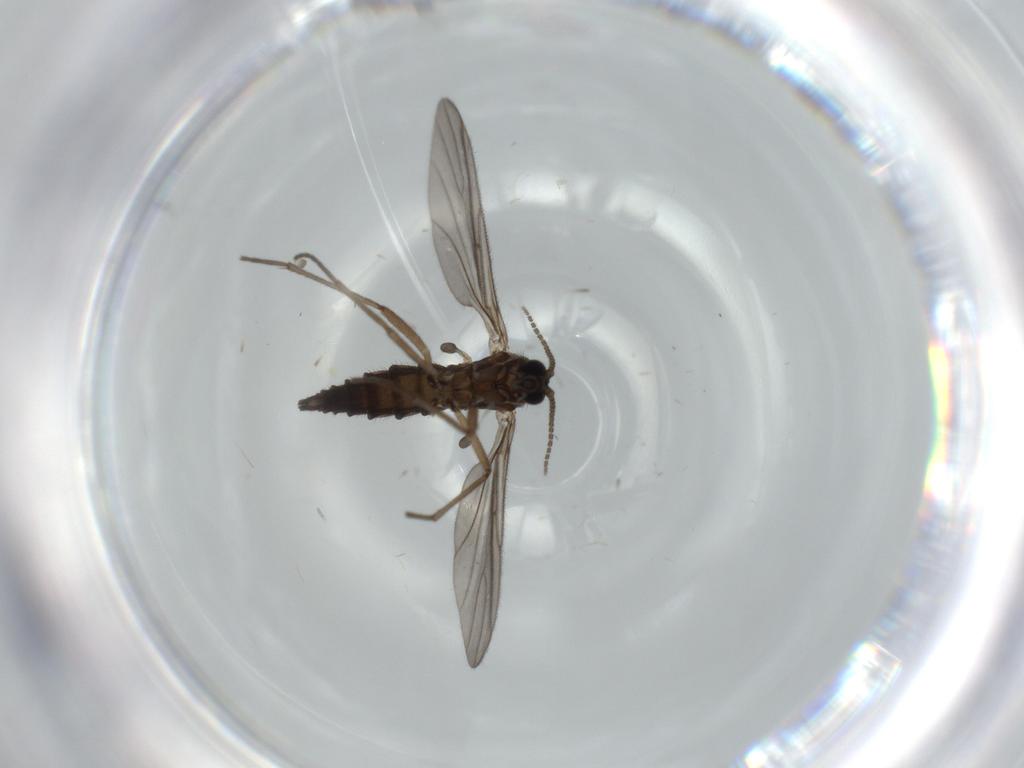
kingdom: Animalia
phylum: Arthropoda
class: Insecta
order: Diptera
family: Sciaridae
